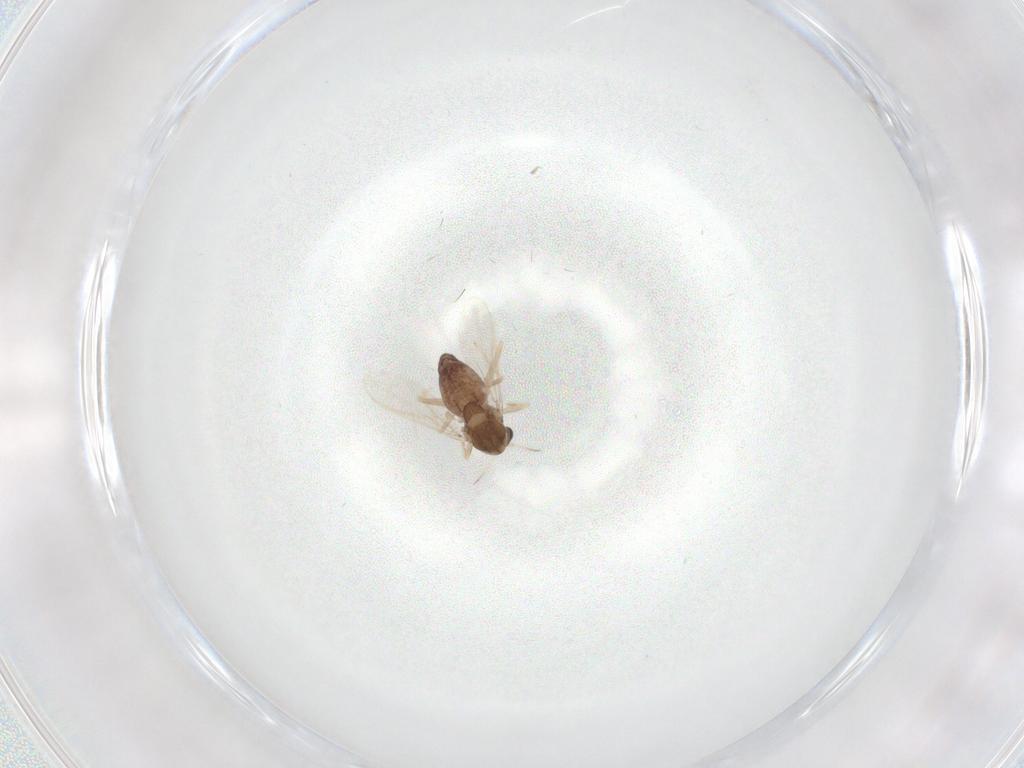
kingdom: Animalia
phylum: Arthropoda
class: Insecta
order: Diptera
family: Chironomidae
